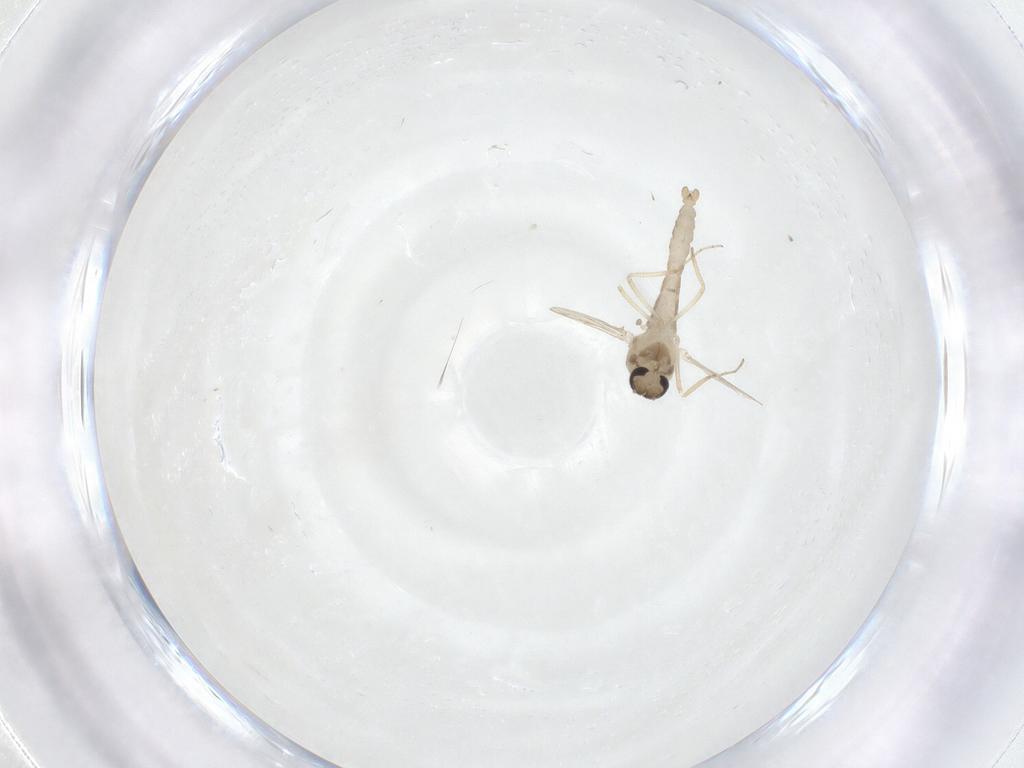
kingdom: Animalia
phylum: Arthropoda
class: Insecta
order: Diptera
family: Ceratopogonidae
